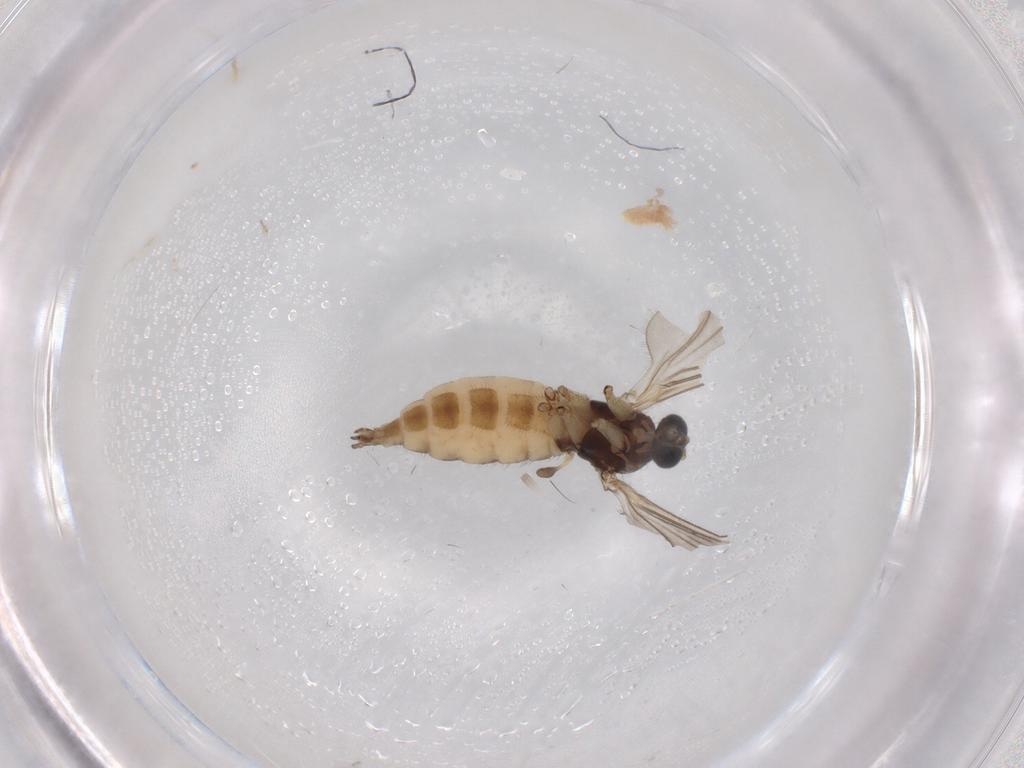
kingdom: Animalia
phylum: Arthropoda
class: Insecta
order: Diptera
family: Sciaridae
